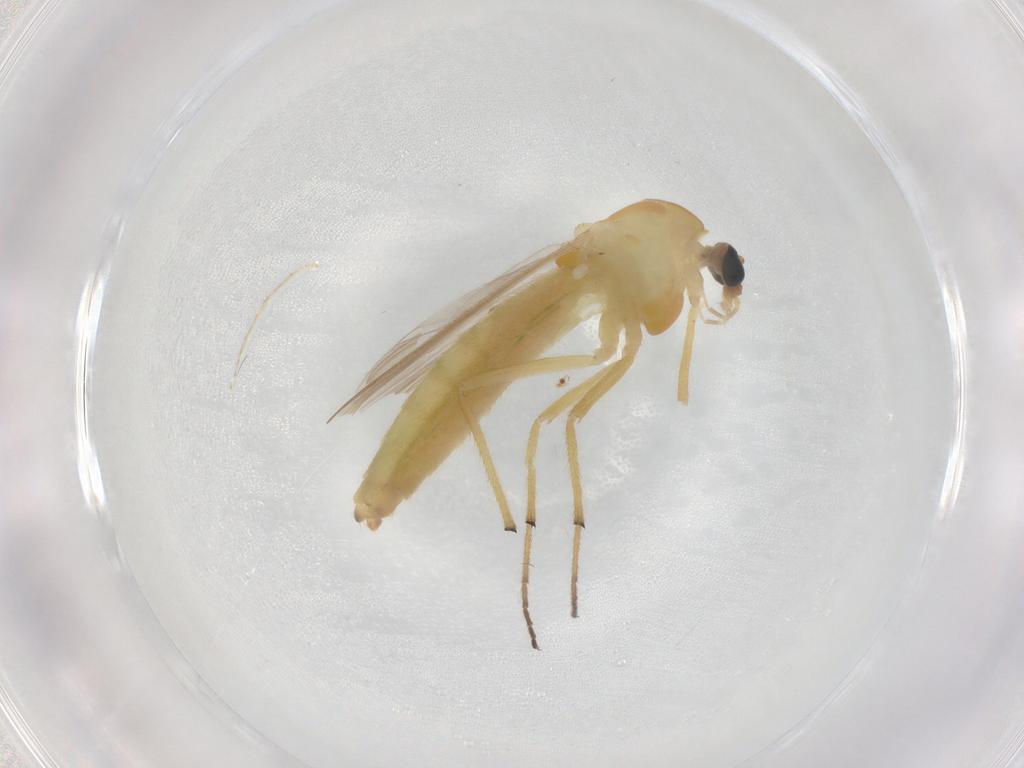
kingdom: Animalia
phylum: Arthropoda
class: Insecta
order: Diptera
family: Chironomidae
